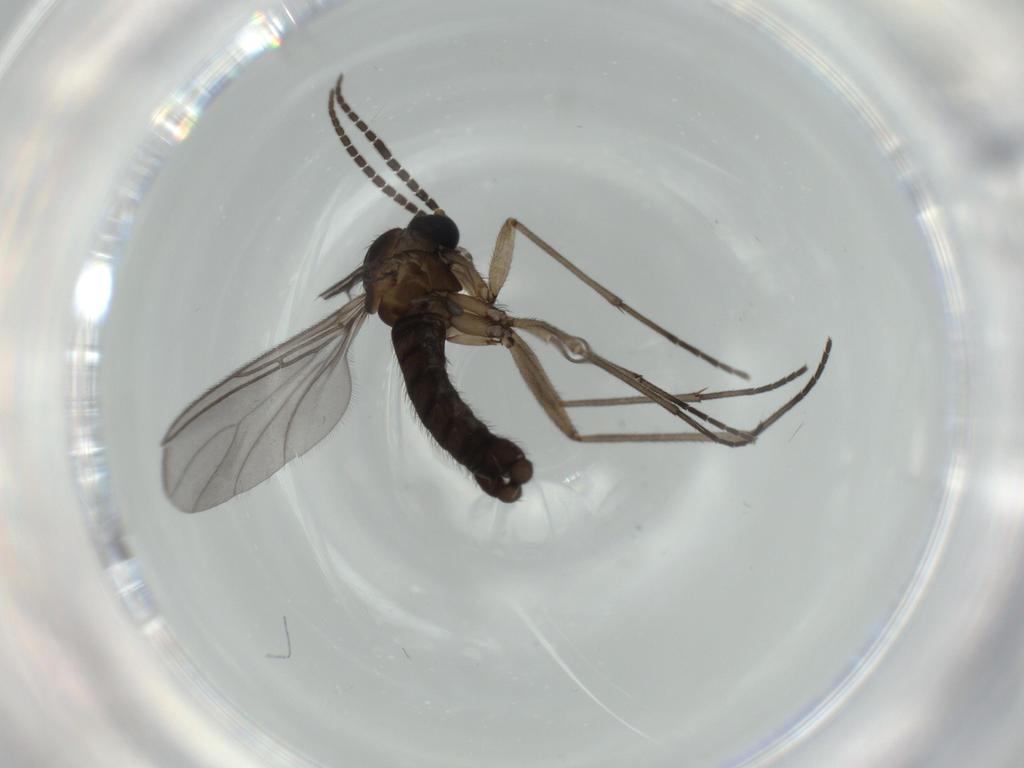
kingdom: Animalia
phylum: Arthropoda
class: Insecta
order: Diptera
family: Sciaridae
